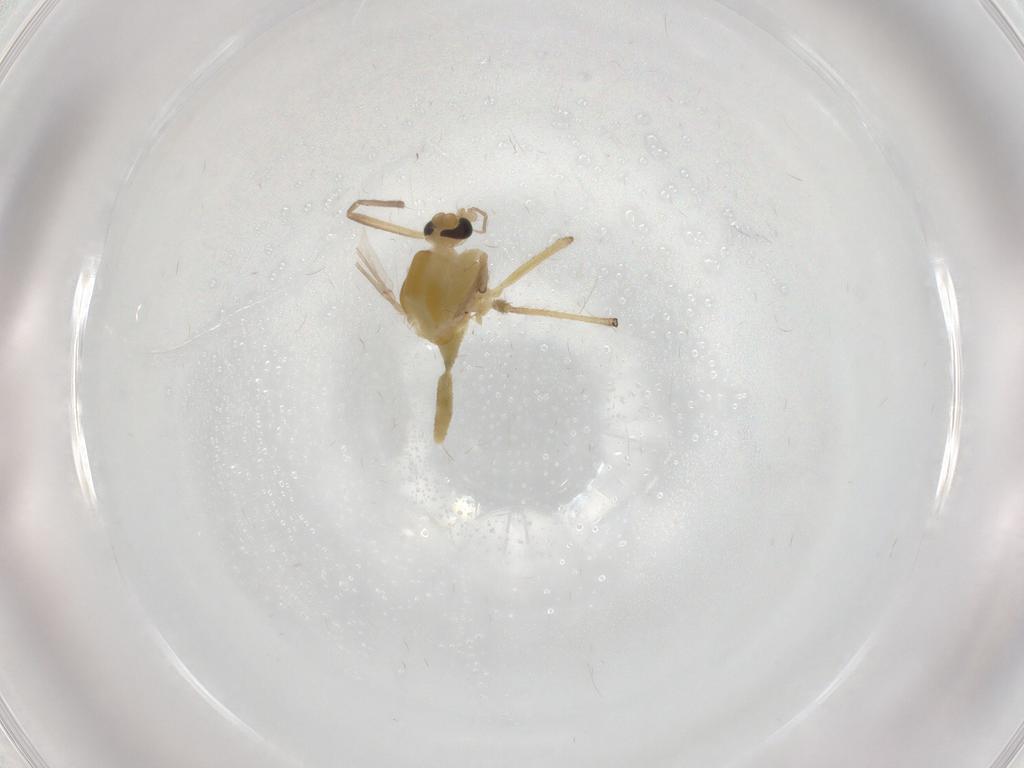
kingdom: Animalia
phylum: Arthropoda
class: Insecta
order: Diptera
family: Chironomidae
